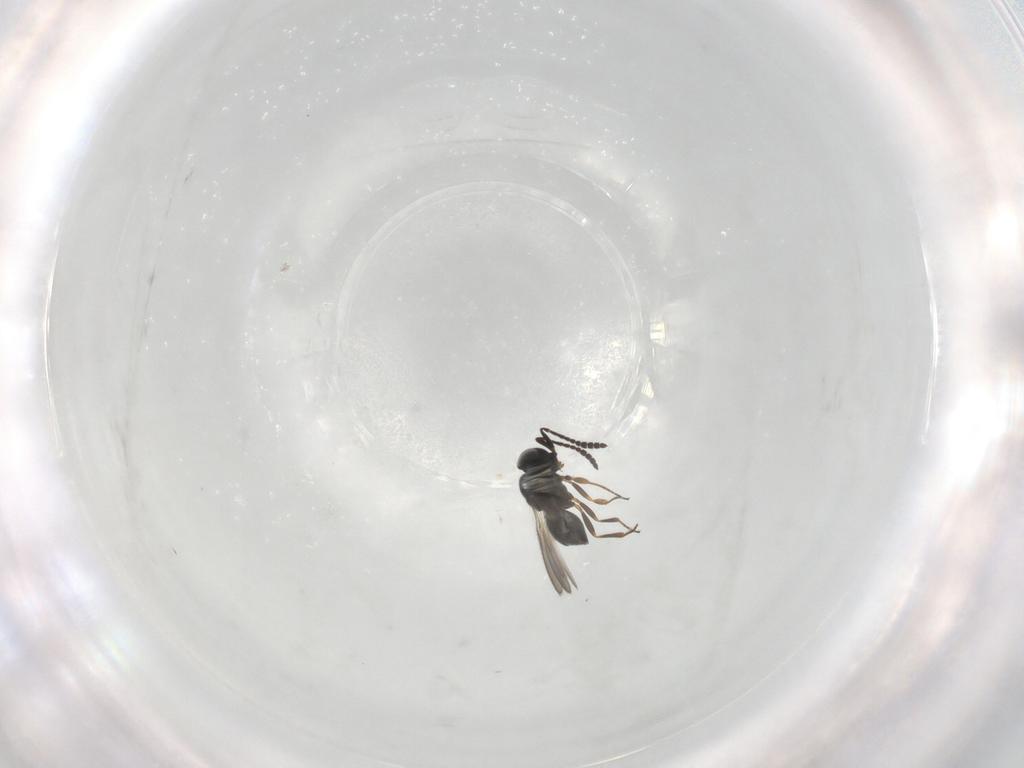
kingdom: Animalia
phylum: Arthropoda
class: Insecta
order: Hymenoptera
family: Scelionidae
